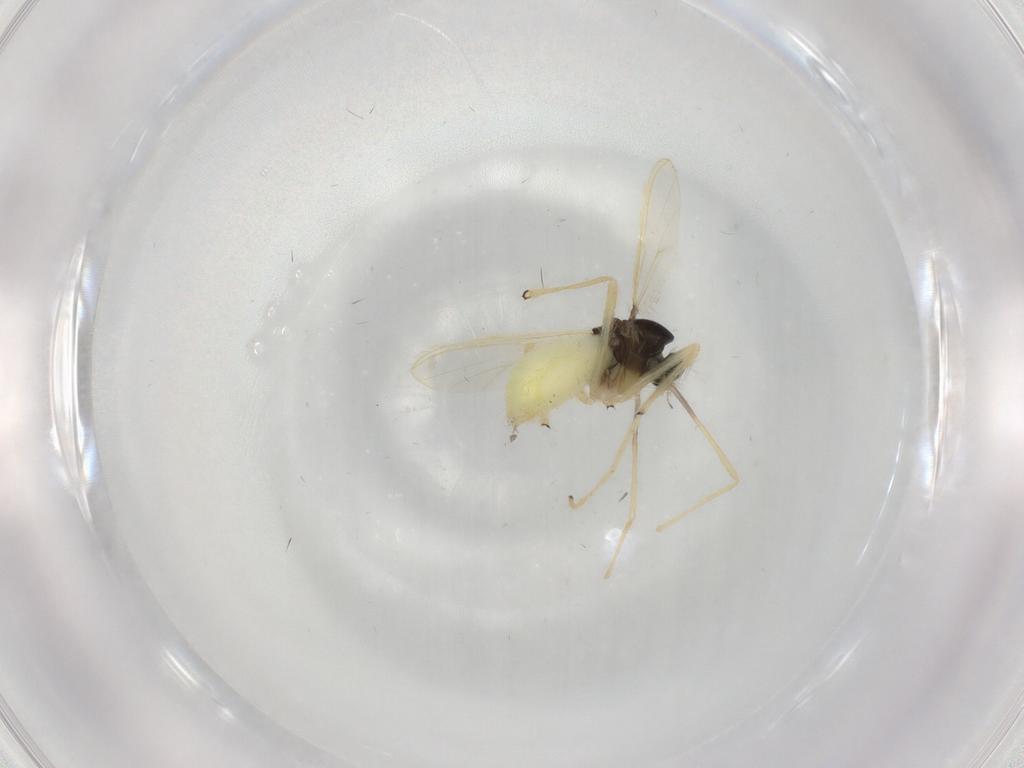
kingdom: Animalia
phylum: Arthropoda
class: Insecta
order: Diptera
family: Chironomidae
